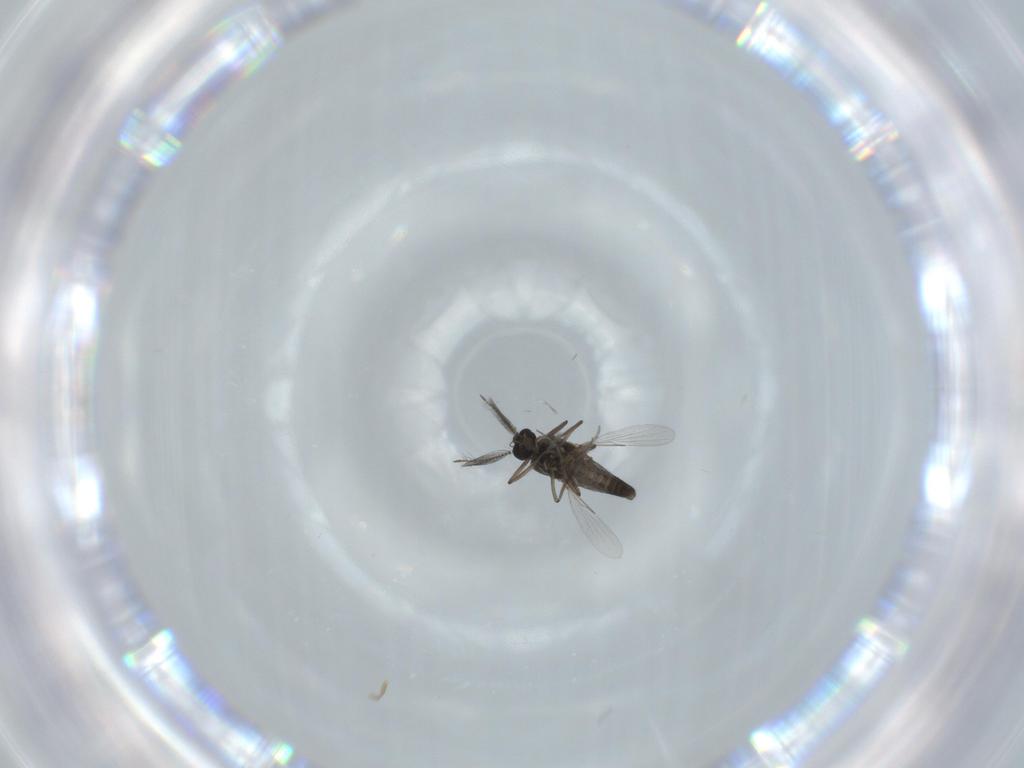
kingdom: Animalia
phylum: Arthropoda
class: Insecta
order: Diptera
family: Ceratopogonidae
